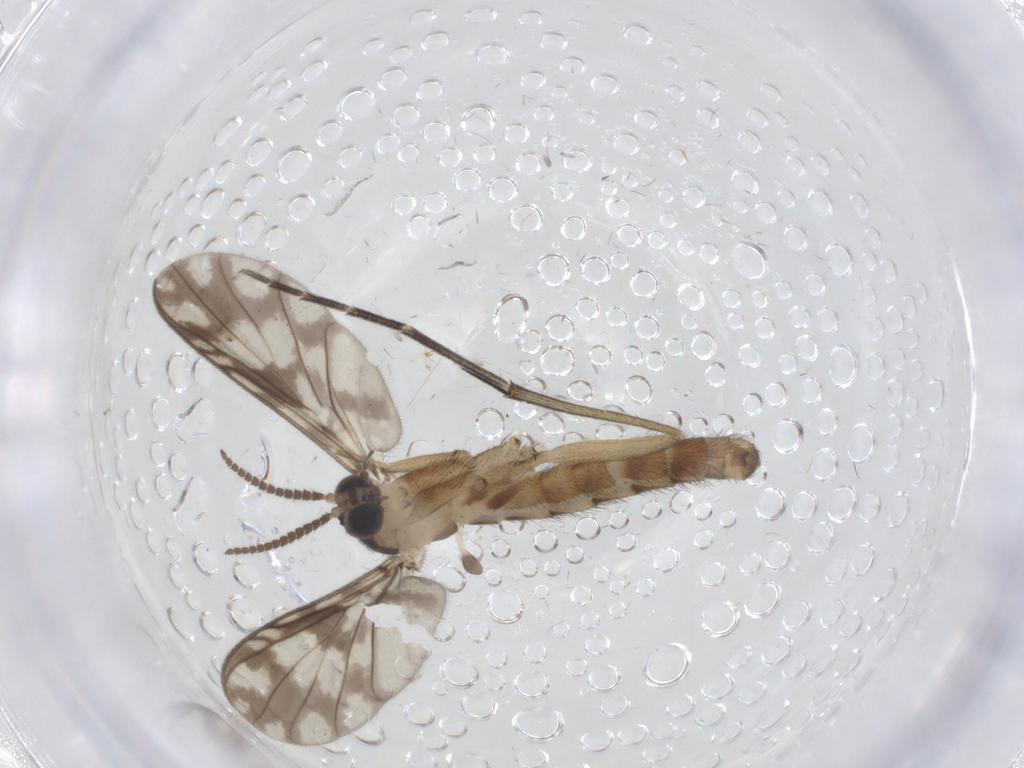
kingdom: Animalia
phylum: Arthropoda
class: Insecta
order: Diptera
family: Keroplatidae
